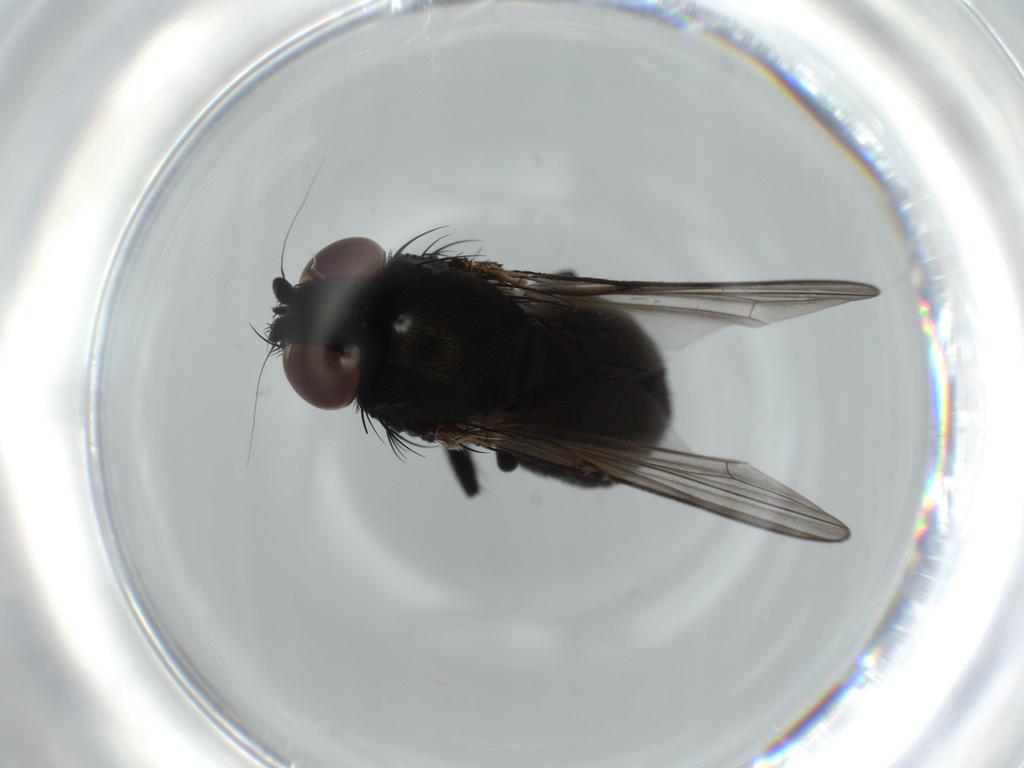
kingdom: Animalia
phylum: Arthropoda
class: Insecta
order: Diptera
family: Milichiidae
